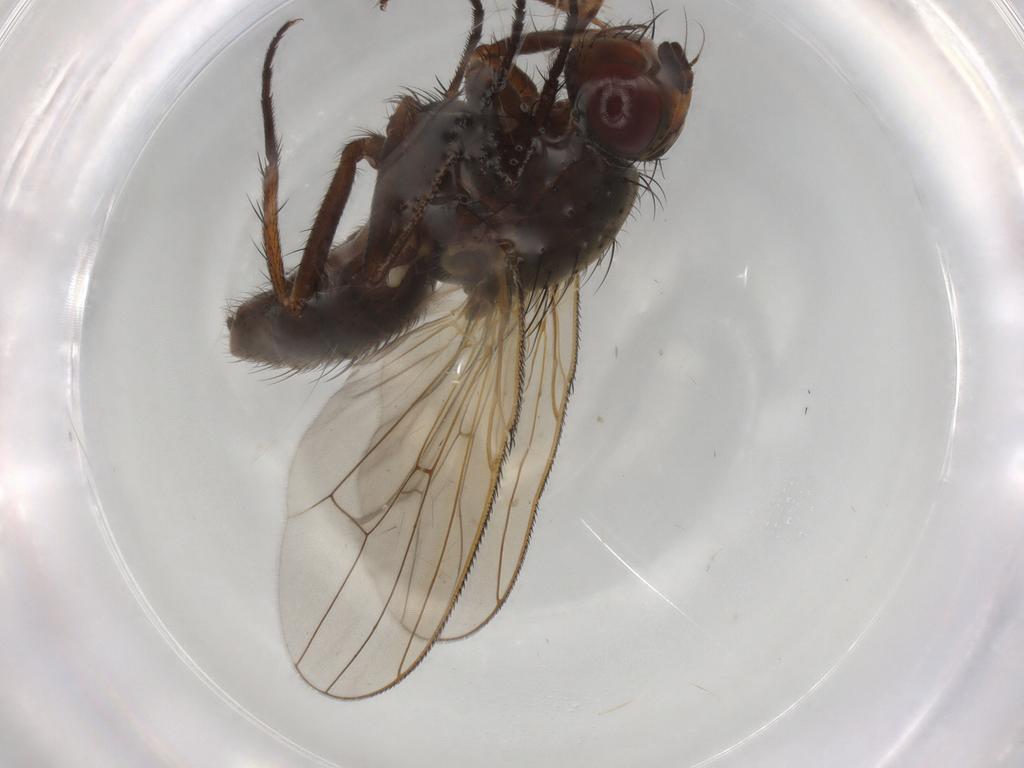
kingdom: Animalia
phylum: Arthropoda
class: Insecta
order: Diptera
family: Anthomyiidae
